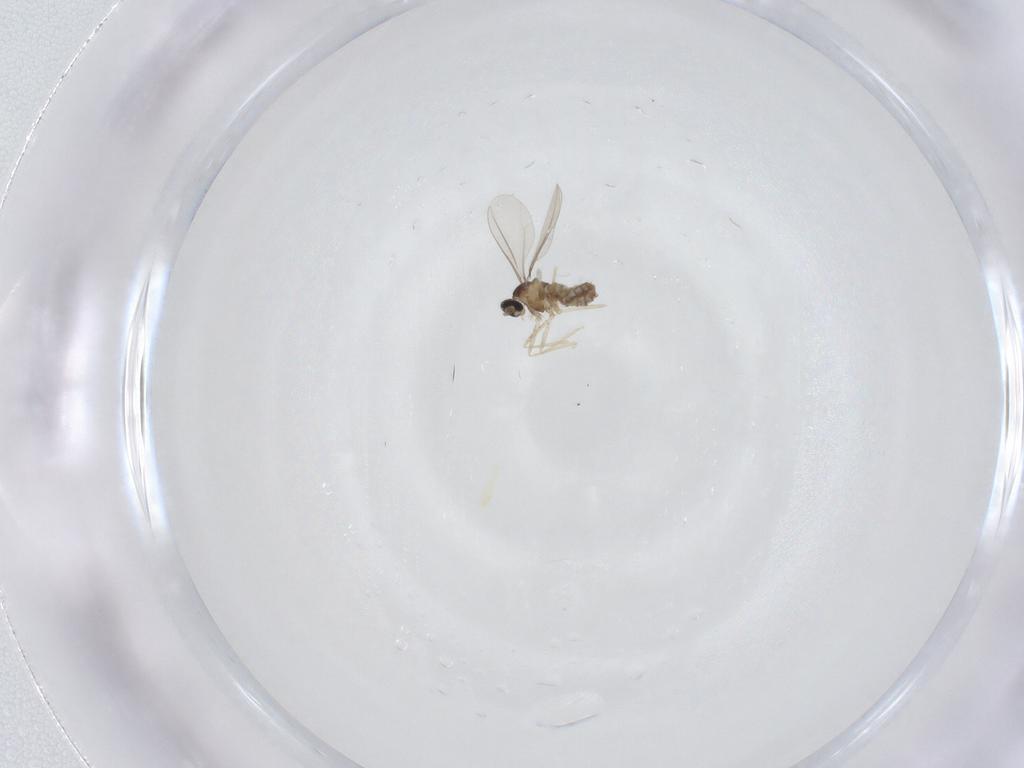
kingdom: Animalia
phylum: Arthropoda
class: Insecta
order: Diptera
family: Cecidomyiidae
